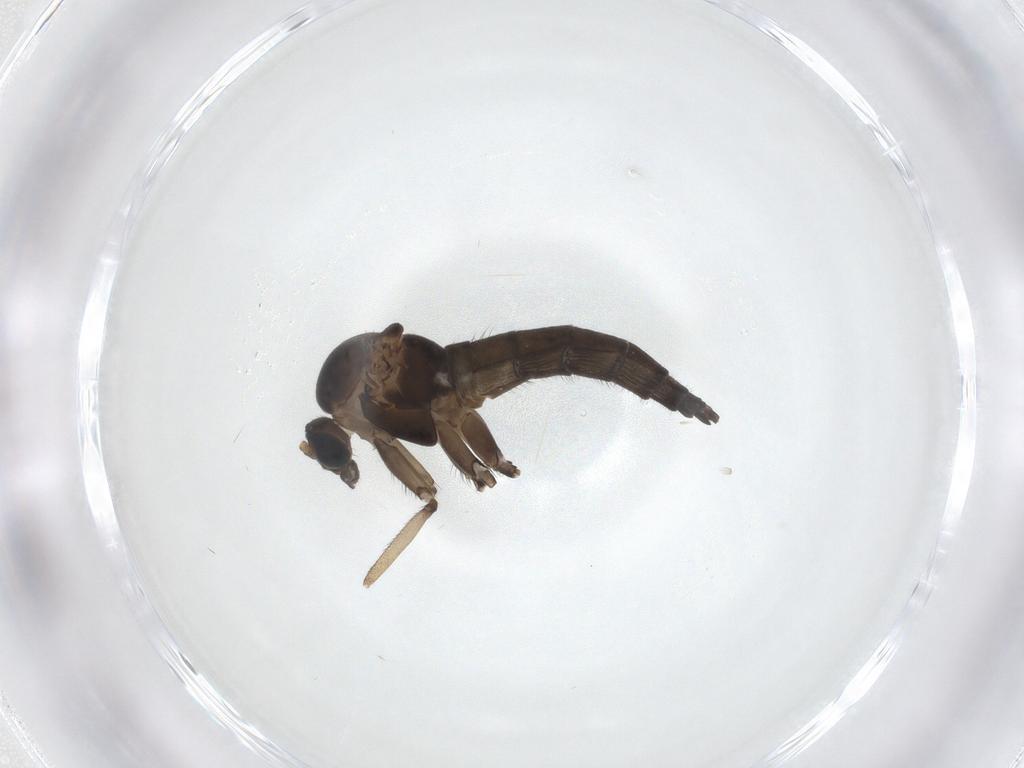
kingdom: Animalia
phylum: Arthropoda
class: Insecta
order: Diptera
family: Sciaridae
